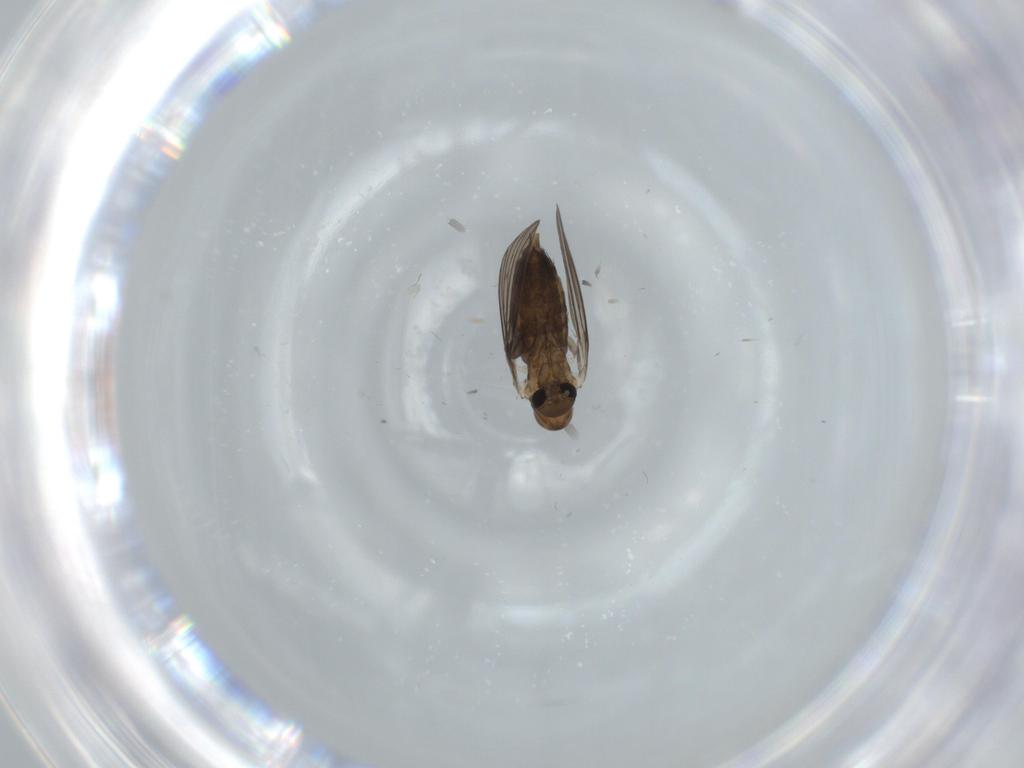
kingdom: Animalia
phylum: Arthropoda
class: Insecta
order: Diptera
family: Sciaridae
